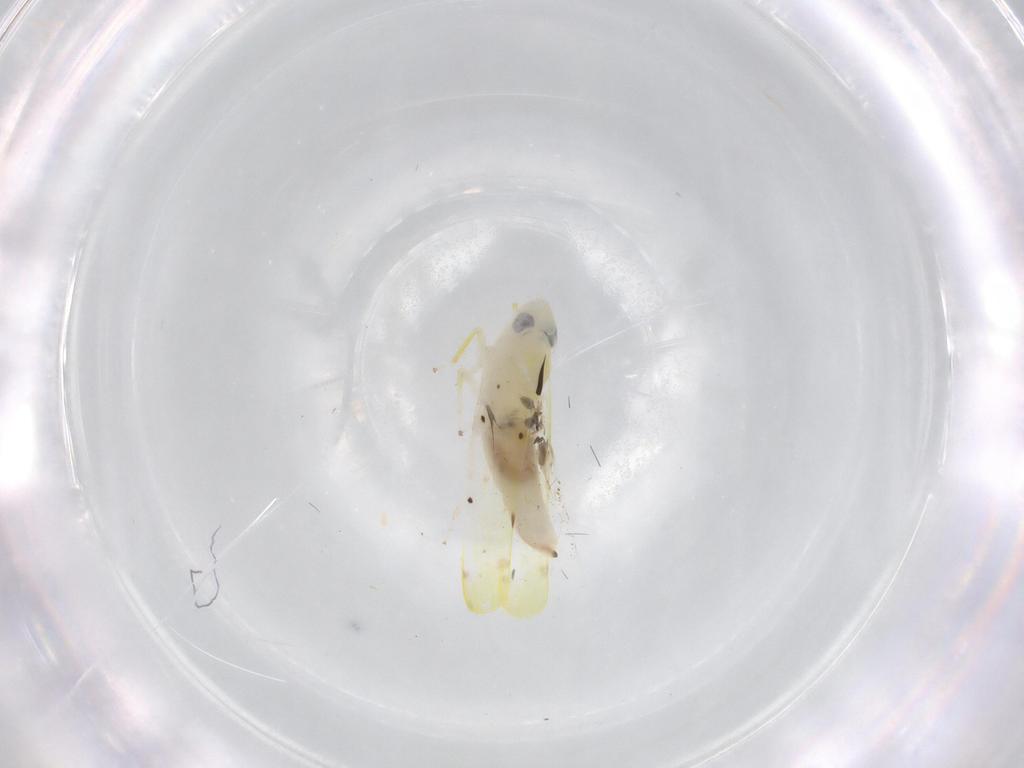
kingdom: Animalia
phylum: Arthropoda
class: Insecta
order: Hemiptera
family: Cicadellidae
